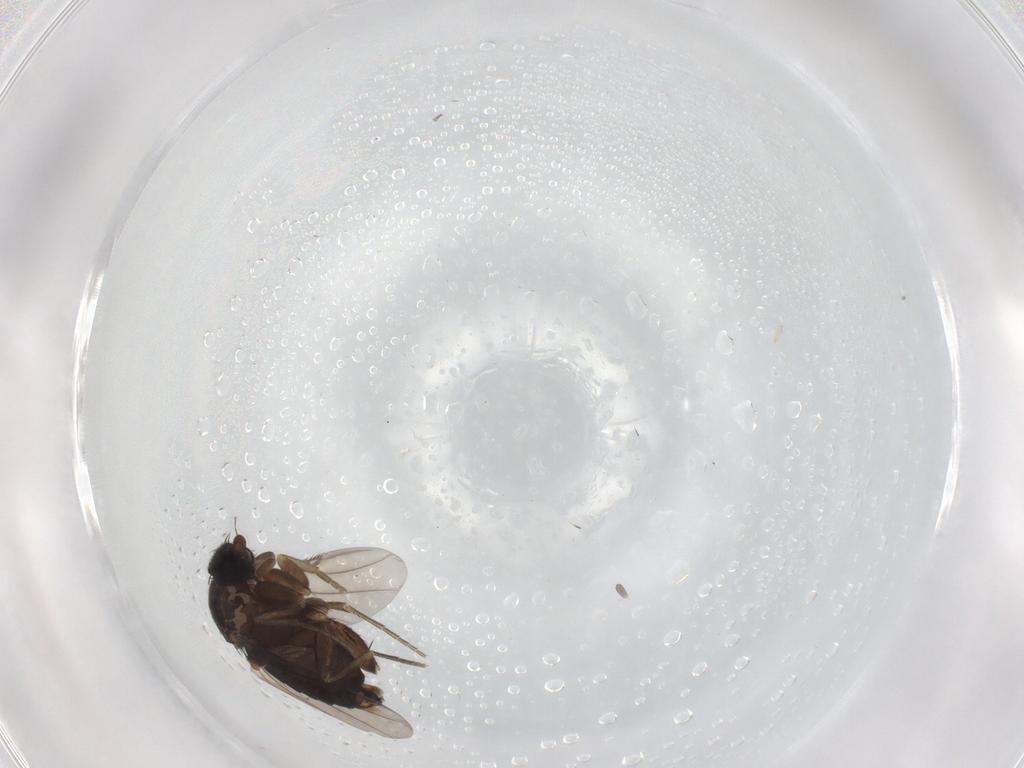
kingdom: Animalia
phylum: Arthropoda
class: Insecta
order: Diptera
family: Phoridae
